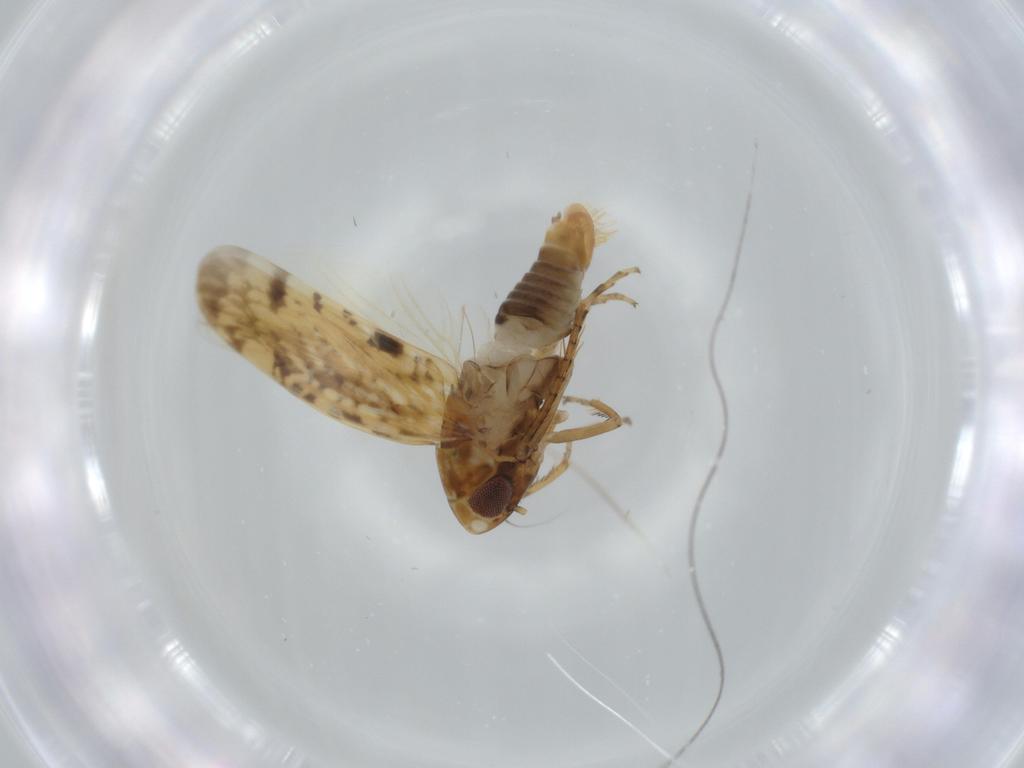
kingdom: Animalia
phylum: Arthropoda
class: Insecta
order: Hemiptera
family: Cicadellidae
